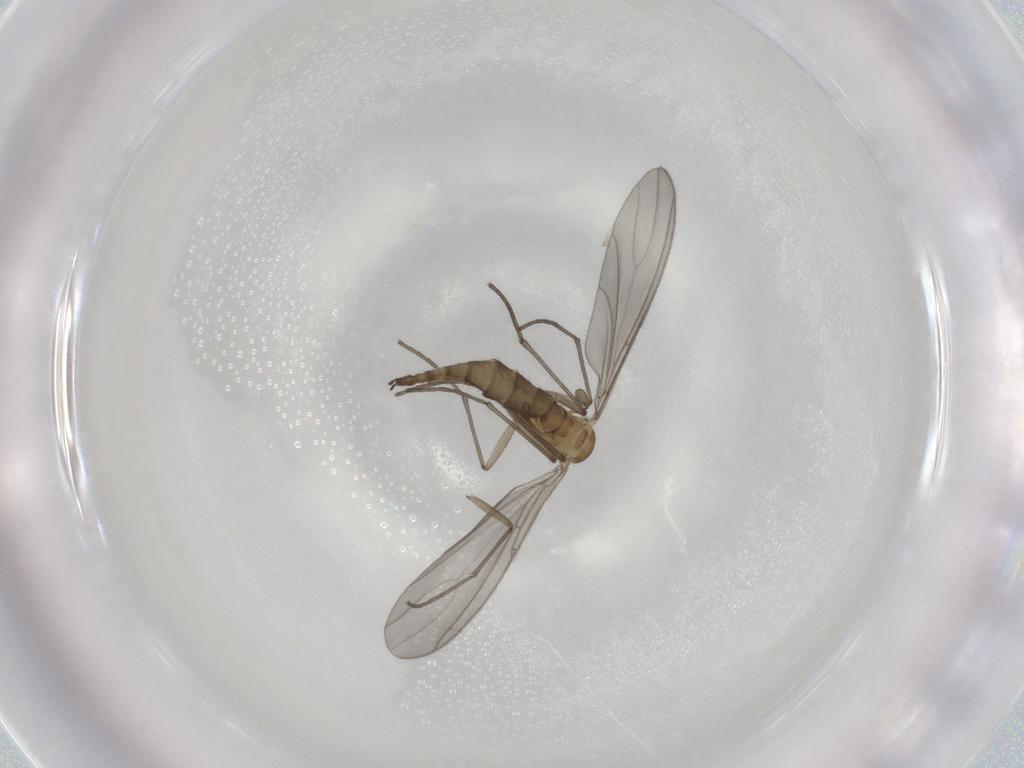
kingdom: Animalia
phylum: Arthropoda
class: Insecta
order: Diptera
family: Sciaridae
